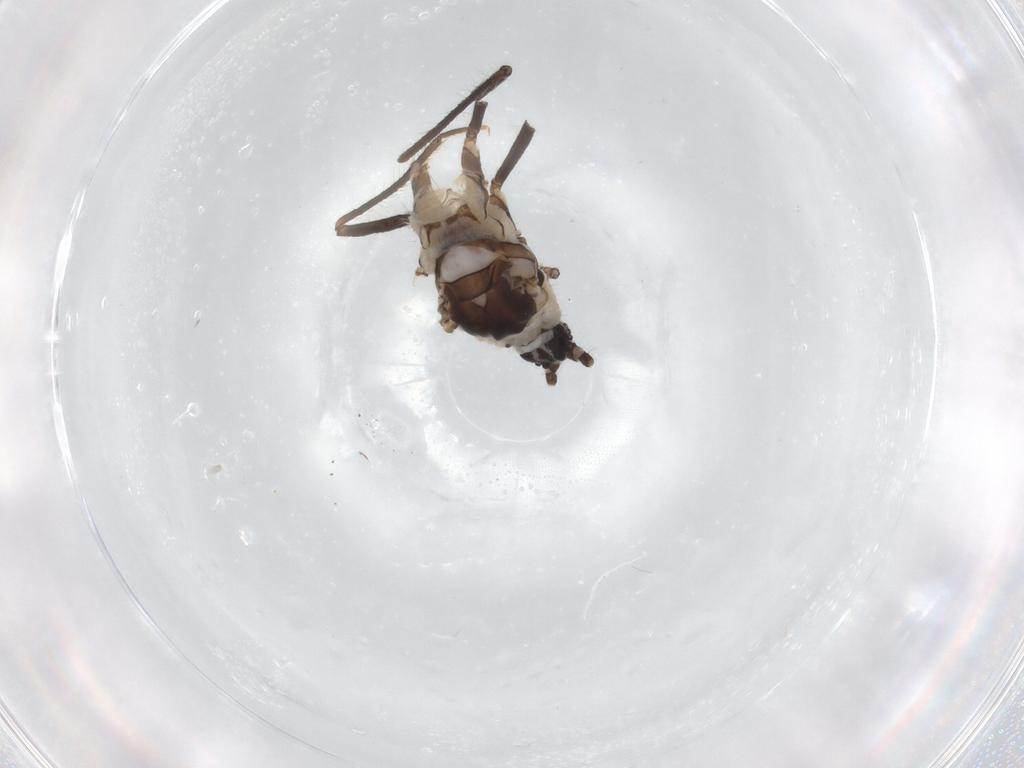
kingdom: Animalia
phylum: Arthropoda
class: Insecta
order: Hemiptera
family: Putoidae
